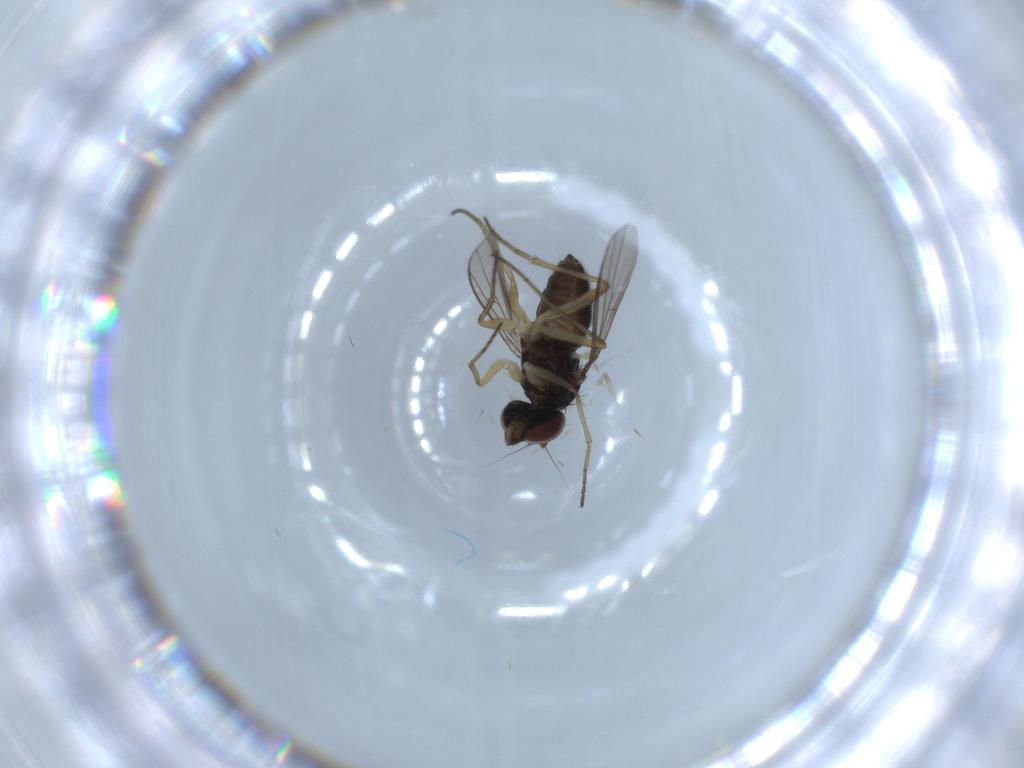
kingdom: Animalia
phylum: Arthropoda
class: Insecta
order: Diptera
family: Dolichopodidae
